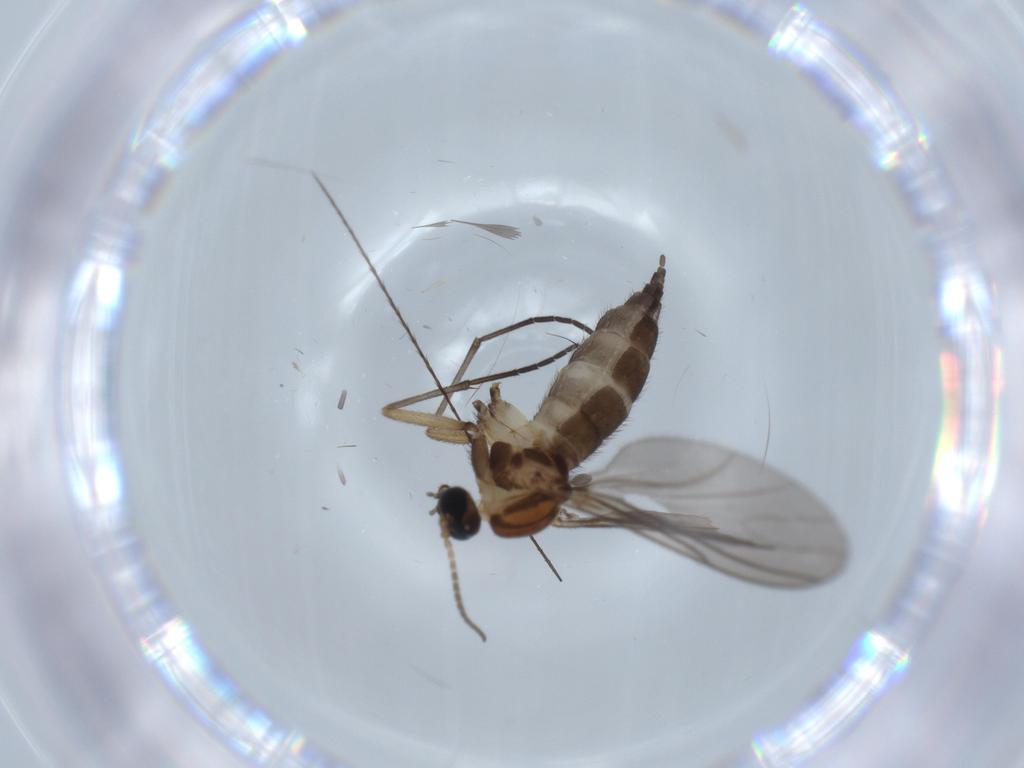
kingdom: Animalia
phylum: Arthropoda
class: Insecta
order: Diptera
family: Sciaridae
